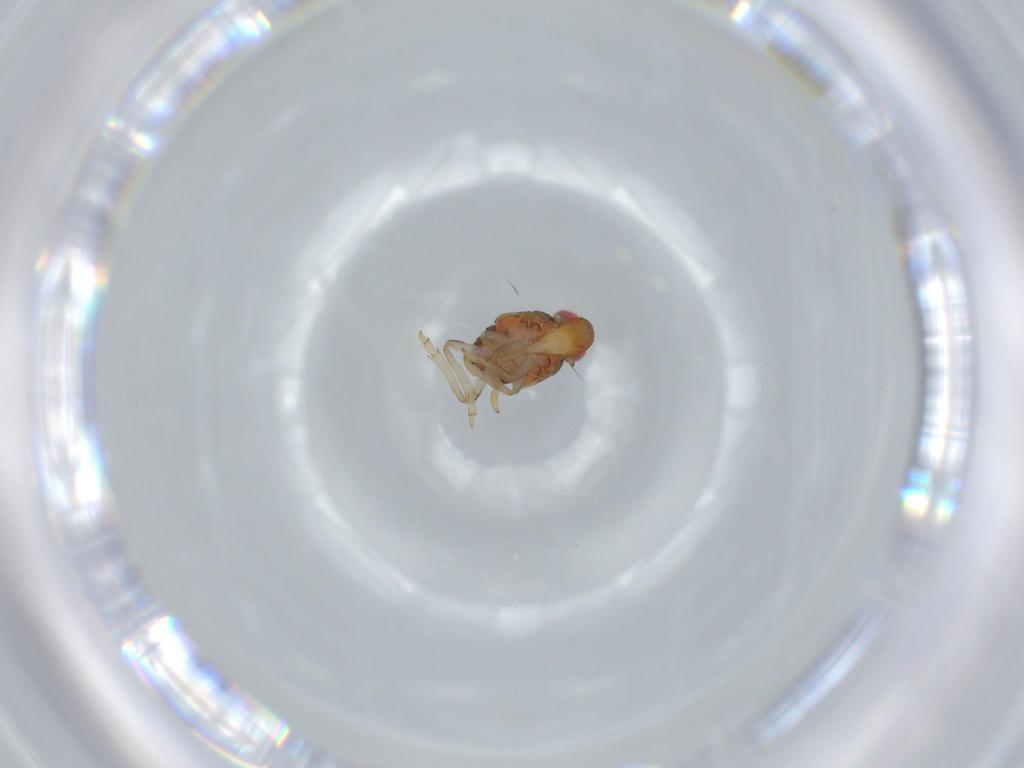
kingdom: Animalia
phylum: Arthropoda
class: Insecta
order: Hemiptera
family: Issidae
